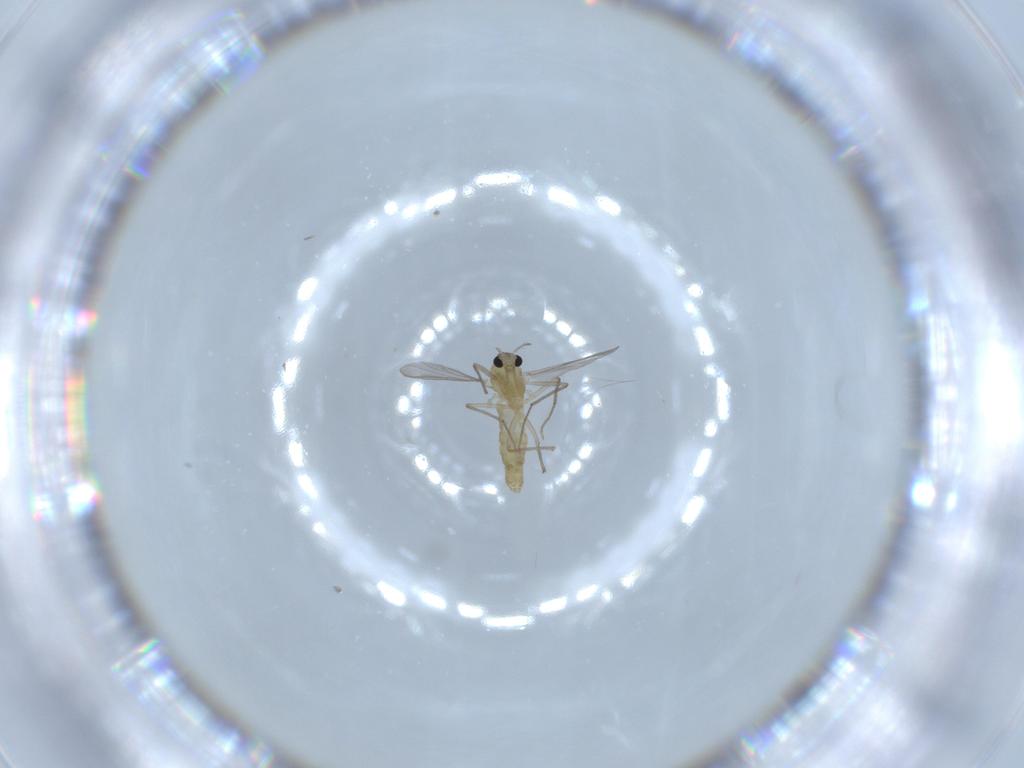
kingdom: Animalia
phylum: Arthropoda
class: Insecta
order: Diptera
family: Chironomidae
